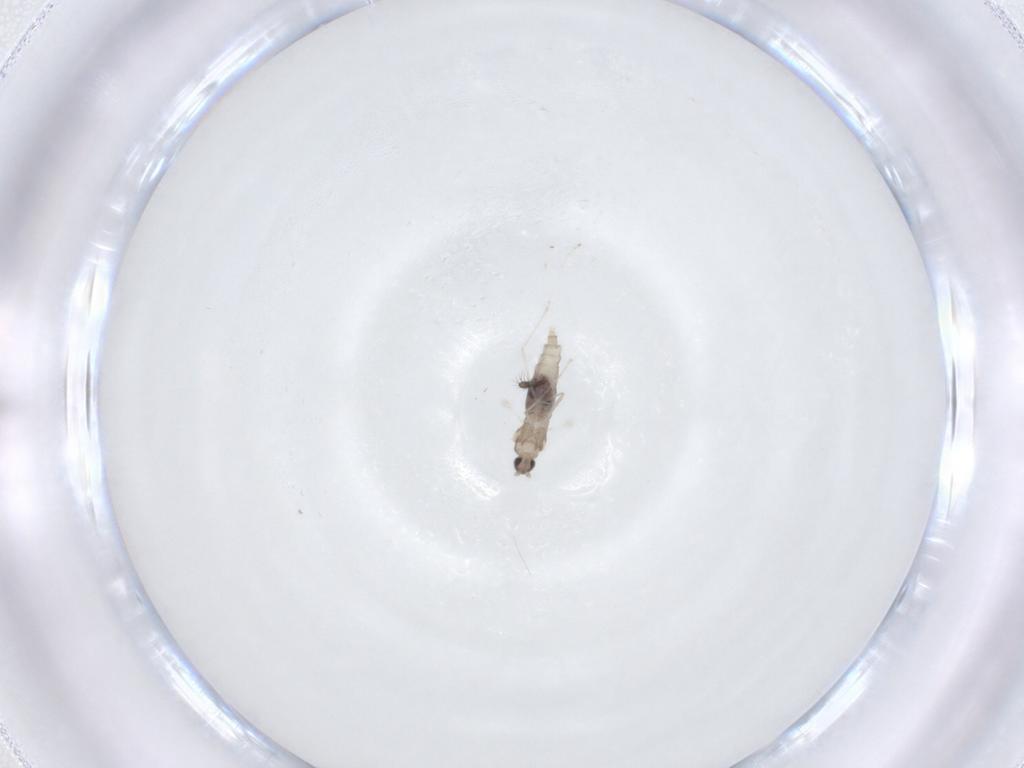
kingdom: Animalia
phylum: Arthropoda
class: Insecta
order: Diptera
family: Cecidomyiidae
